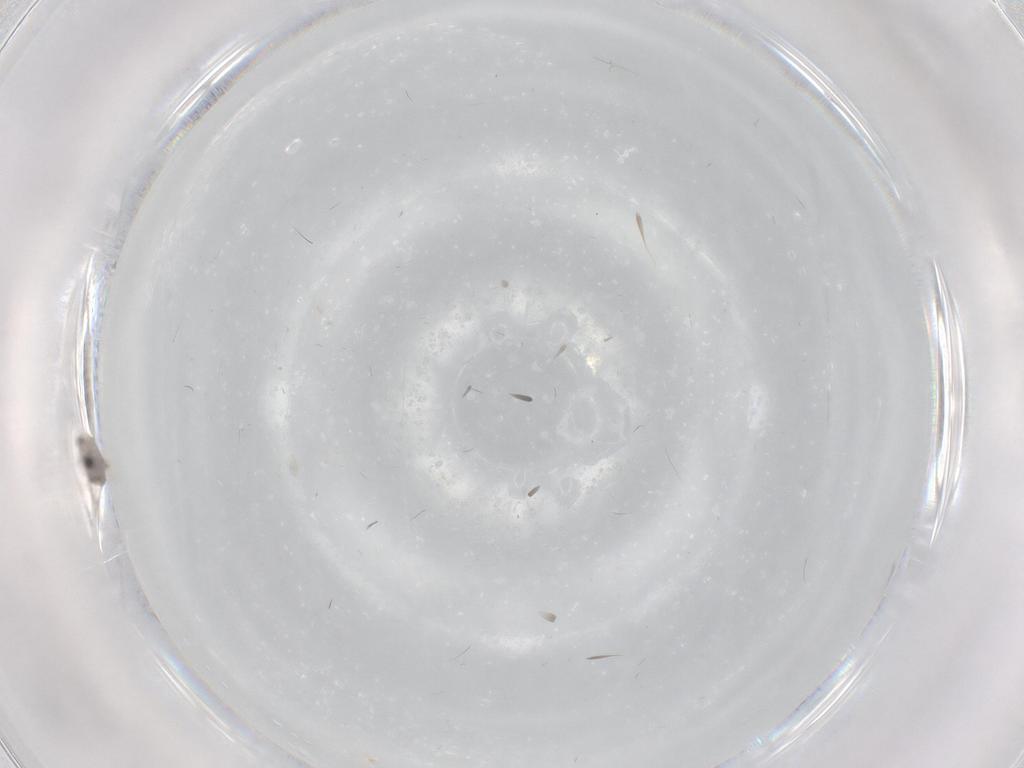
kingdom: Animalia
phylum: Arthropoda
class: Insecta
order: Diptera
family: Cecidomyiidae
